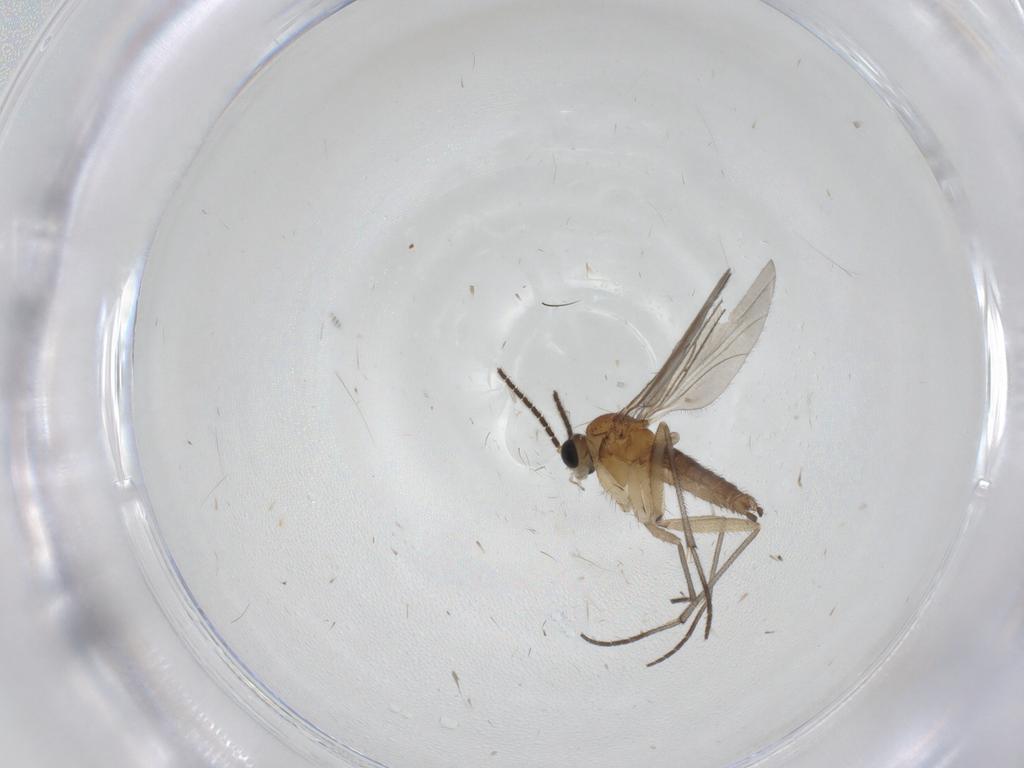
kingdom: Animalia
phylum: Arthropoda
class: Insecta
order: Diptera
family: Sciaridae
